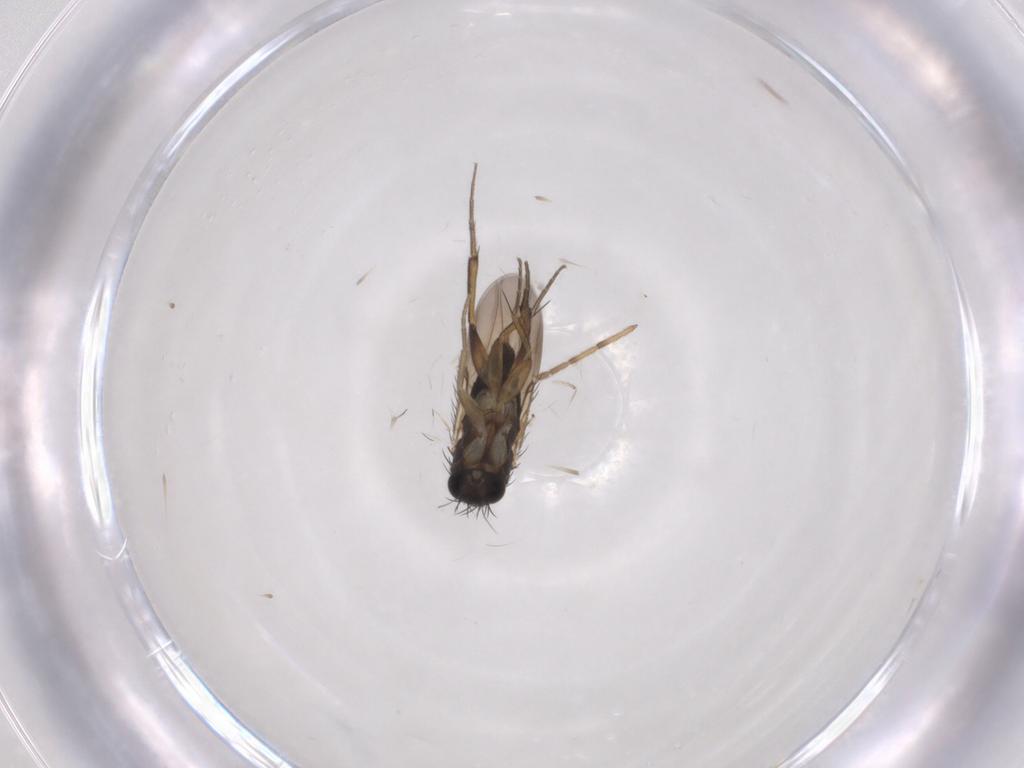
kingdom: Animalia
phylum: Arthropoda
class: Insecta
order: Diptera
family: Phoridae
